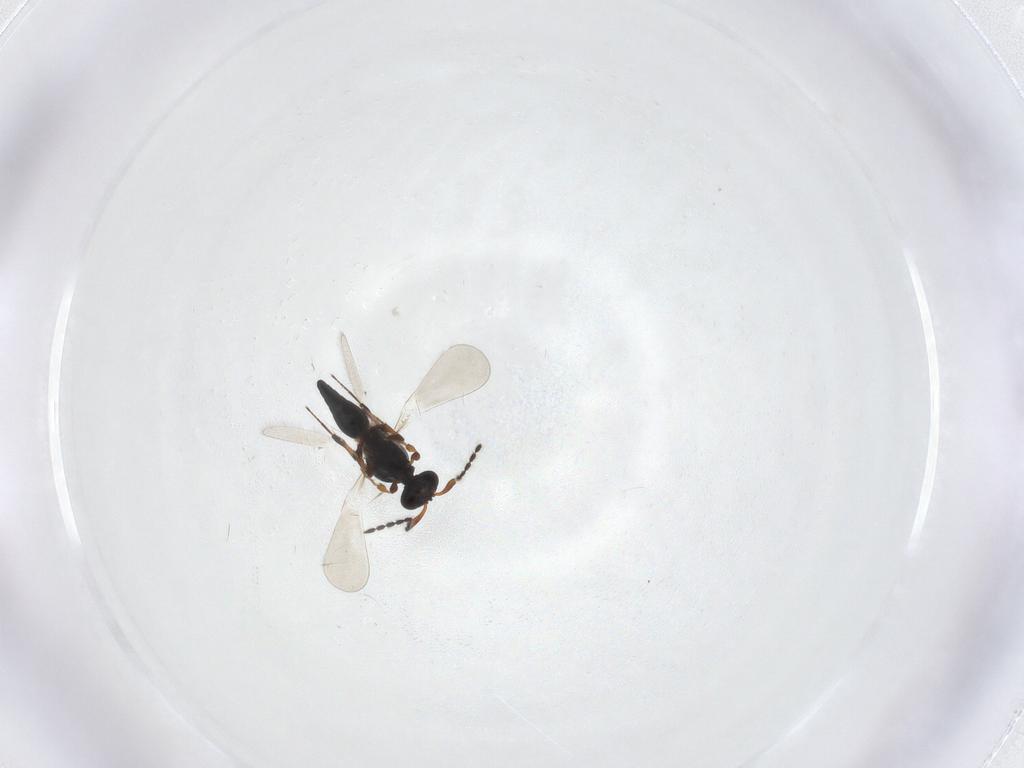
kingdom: Animalia
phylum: Arthropoda
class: Insecta
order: Hymenoptera
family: Platygastridae
